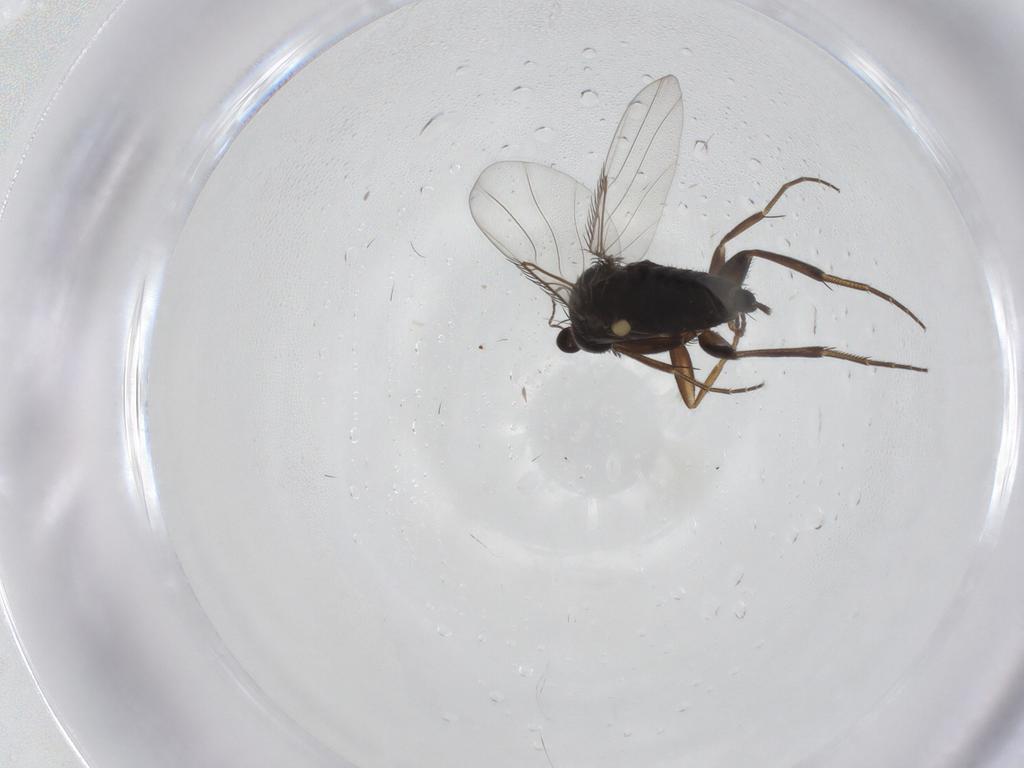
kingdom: Animalia
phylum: Arthropoda
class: Insecta
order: Diptera
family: Phoridae
